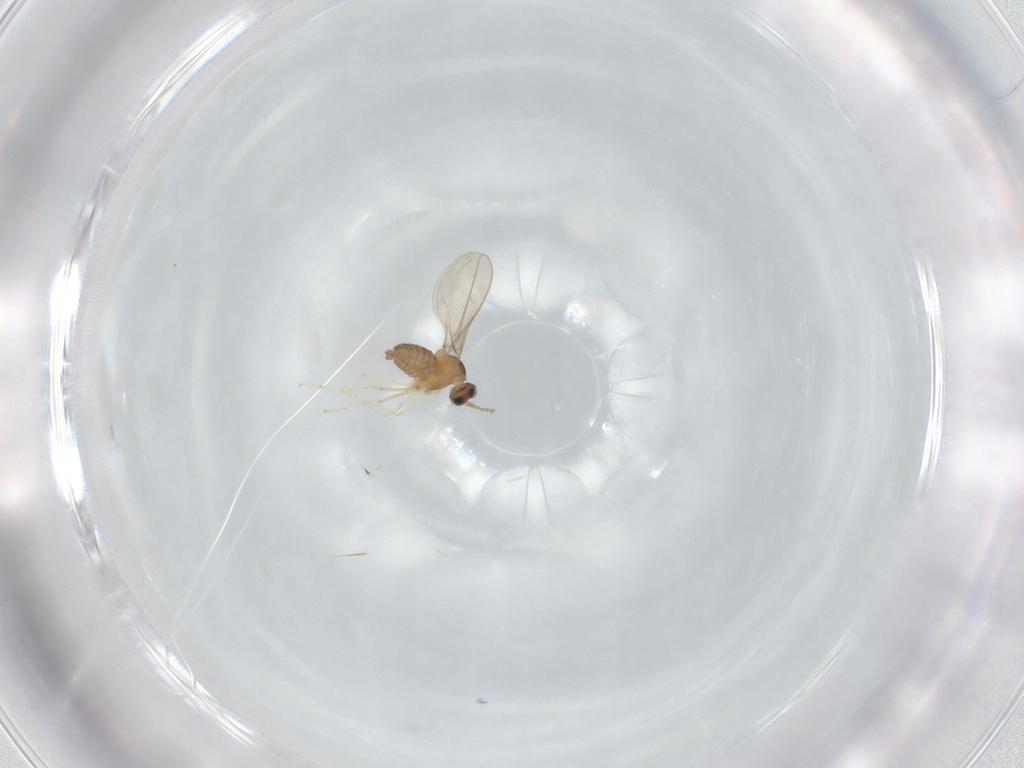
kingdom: Animalia
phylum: Arthropoda
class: Insecta
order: Diptera
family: Cecidomyiidae
